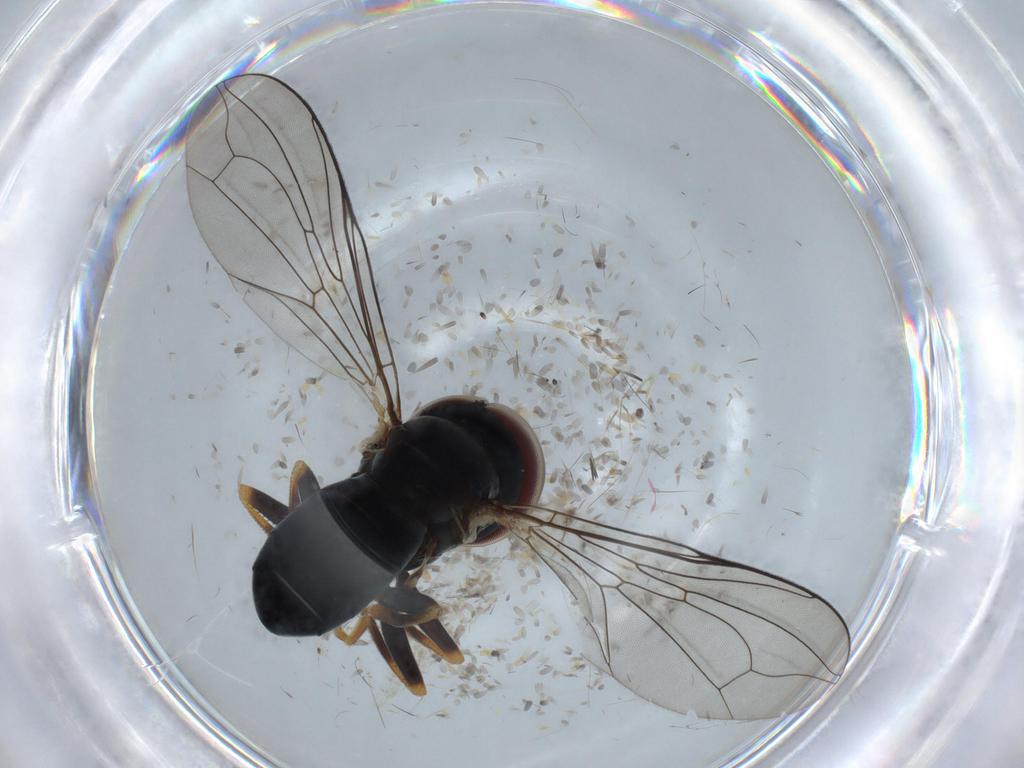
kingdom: Animalia
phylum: Arthropoda
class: Insecta
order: Diptera
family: Pipunculidae
